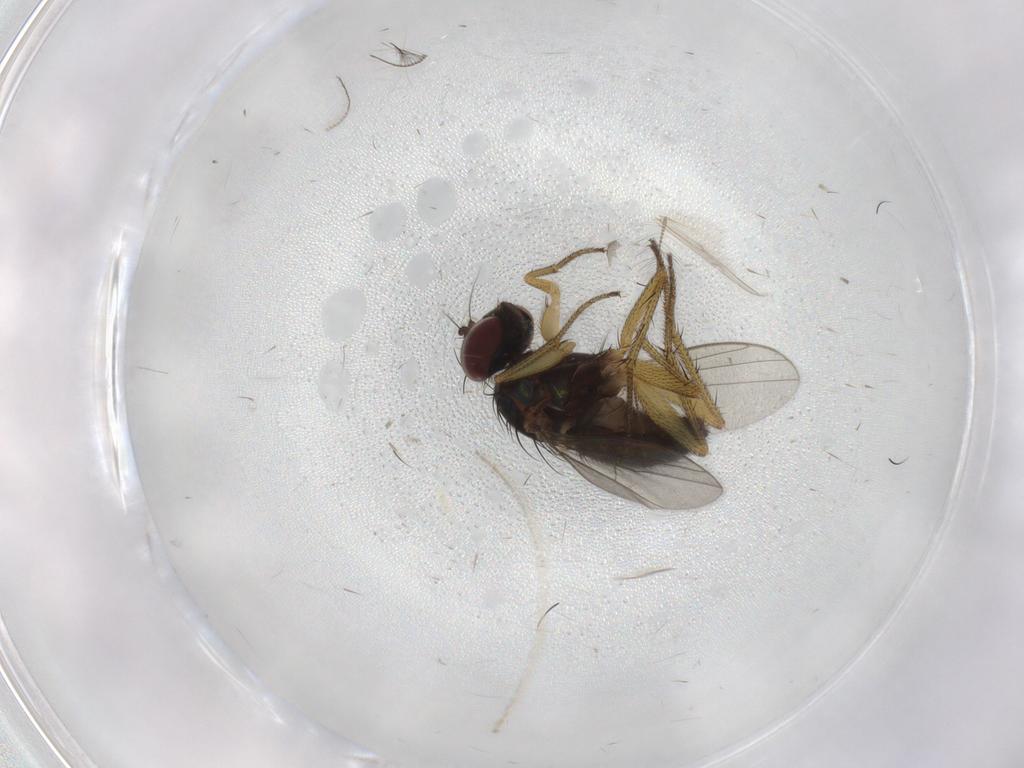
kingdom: Animalia
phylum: Arthropoda
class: Insecta
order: Diptera
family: Chironomidae
